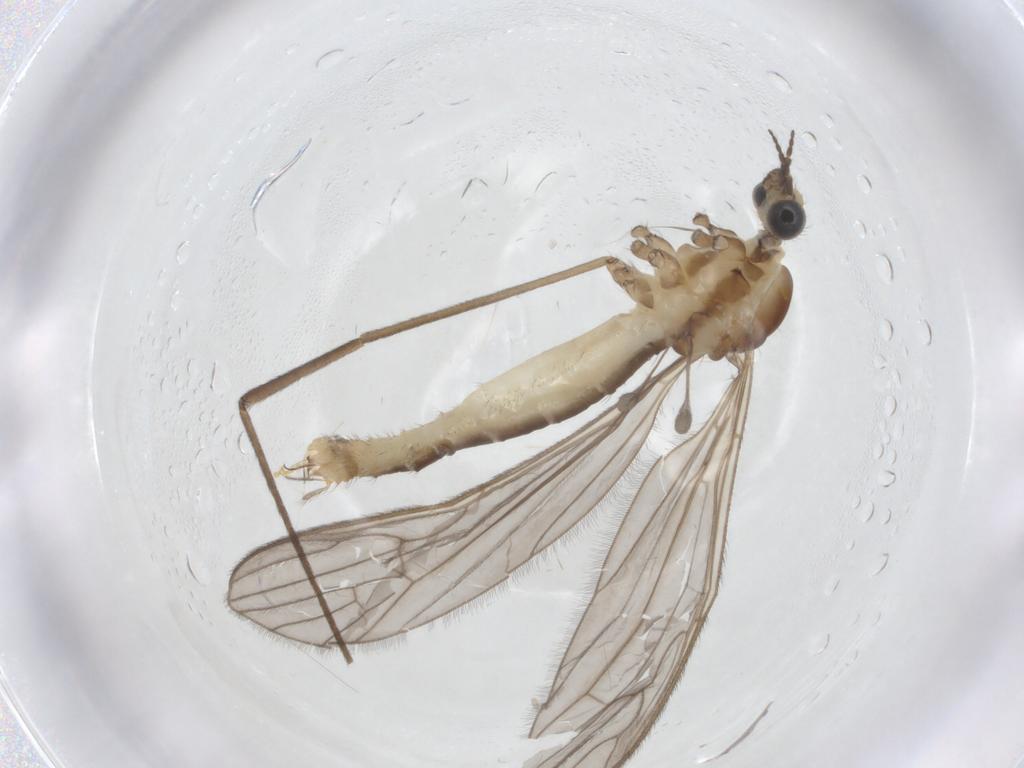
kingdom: Animalia
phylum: Arthropoda
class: Insecta
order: Diptera
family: Limoniidae
